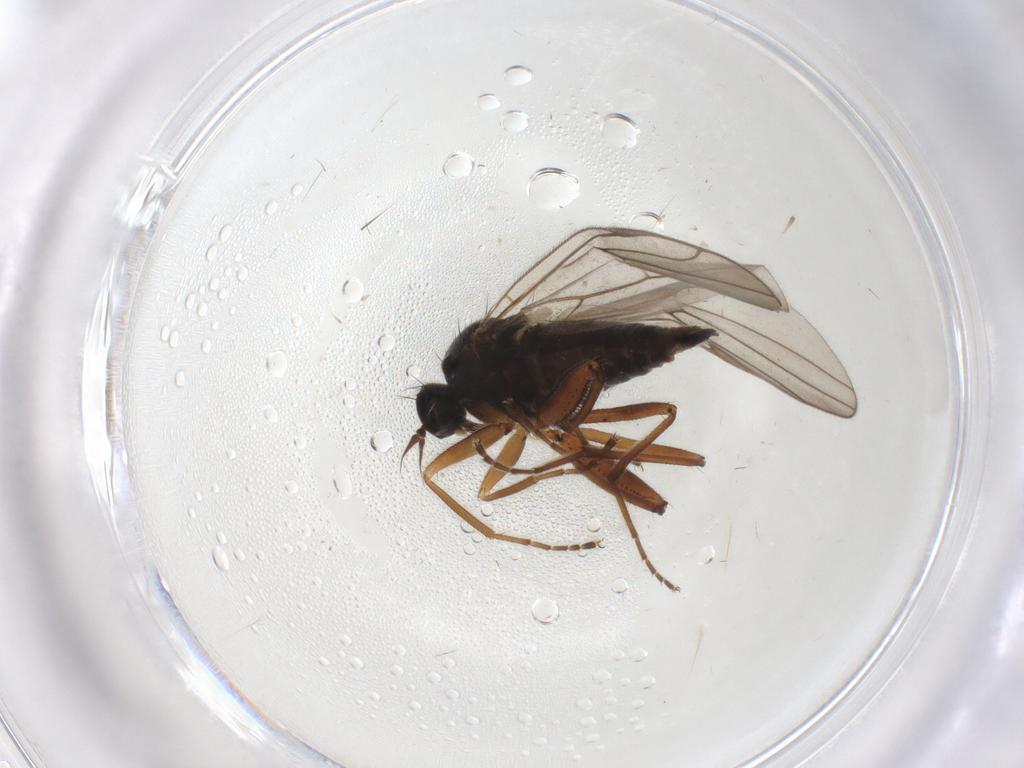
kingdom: Animalia
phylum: Arthropoda
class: Insecta
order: Diptera
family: Hybotidae
